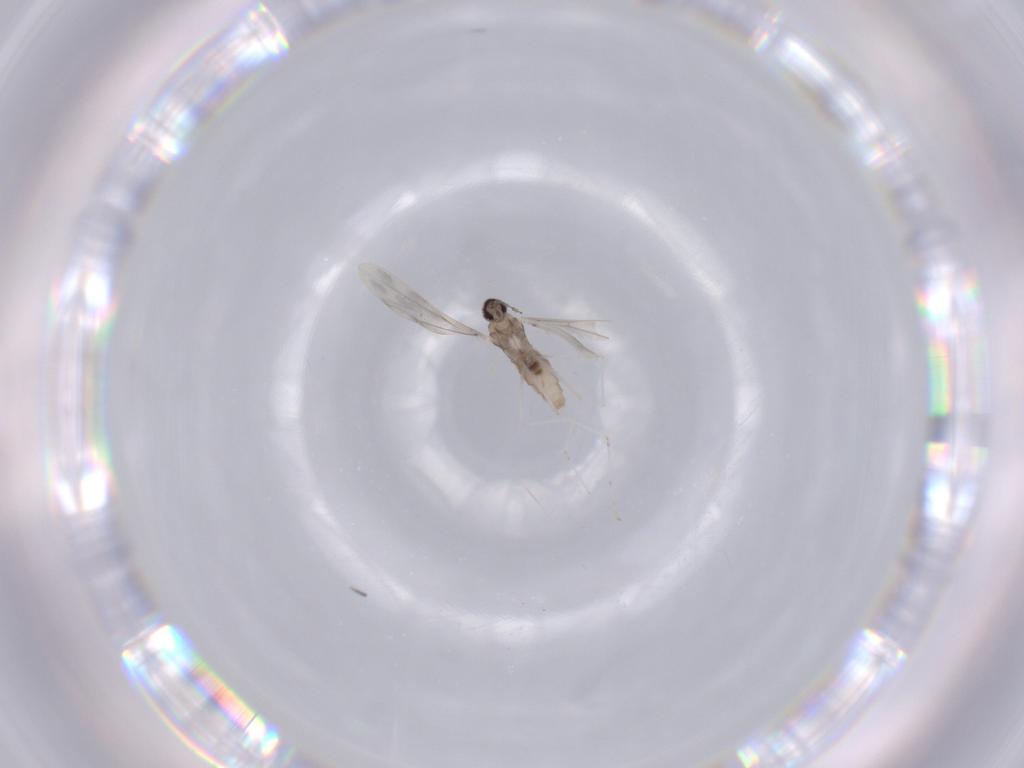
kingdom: Animalia
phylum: Arthropoda
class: Insecta
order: Diptera
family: Cecidomyiidae
